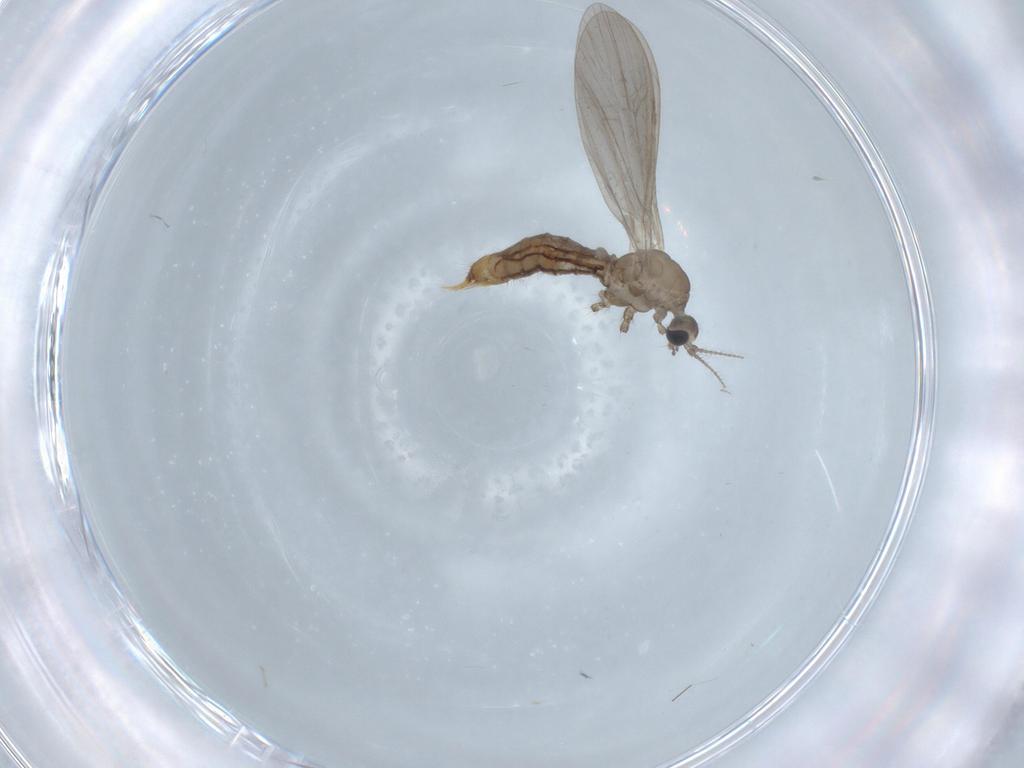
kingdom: Animalia
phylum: Arthropoda
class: Insecta
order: Diptera
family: Limoniidae
